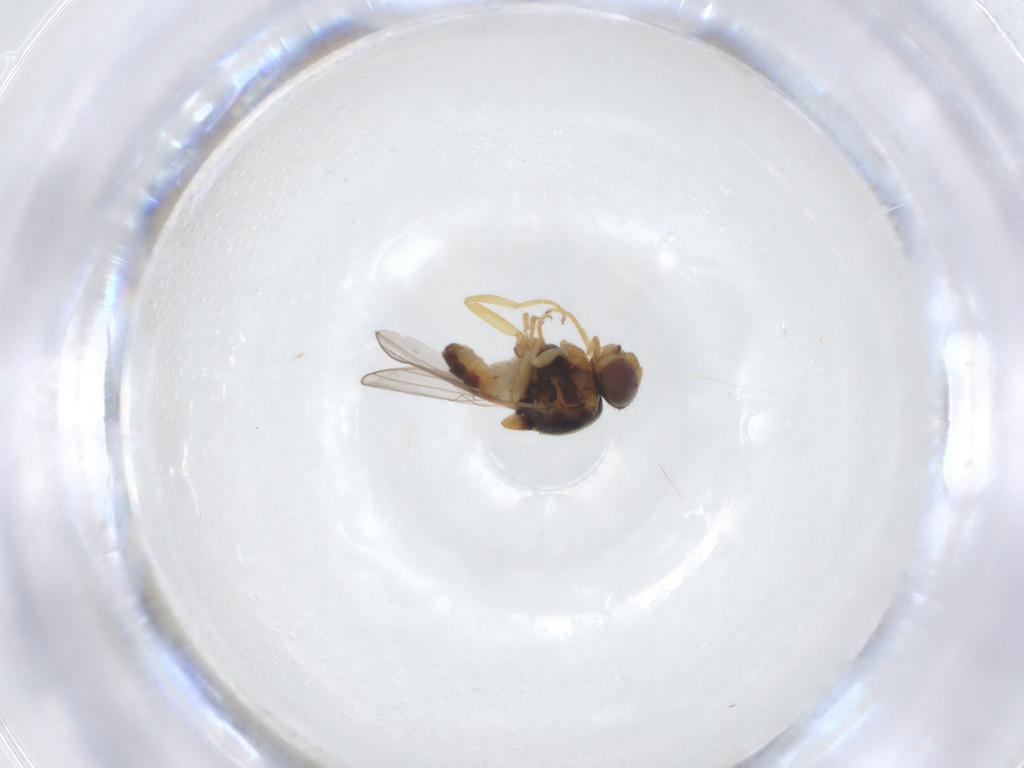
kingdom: Animalia
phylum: Arthropoda
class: Insecta
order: Diptera
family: Chloropidae
